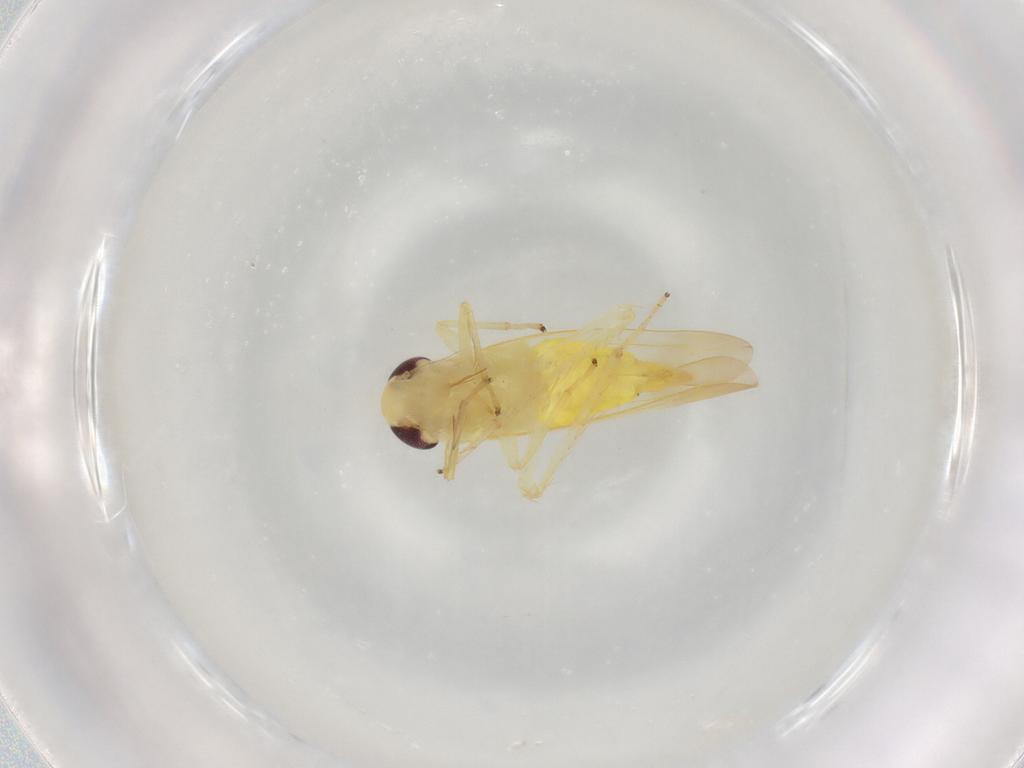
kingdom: Animalia
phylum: Arthropoda
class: Insecta
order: Hemiptera
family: Cicadellidae
